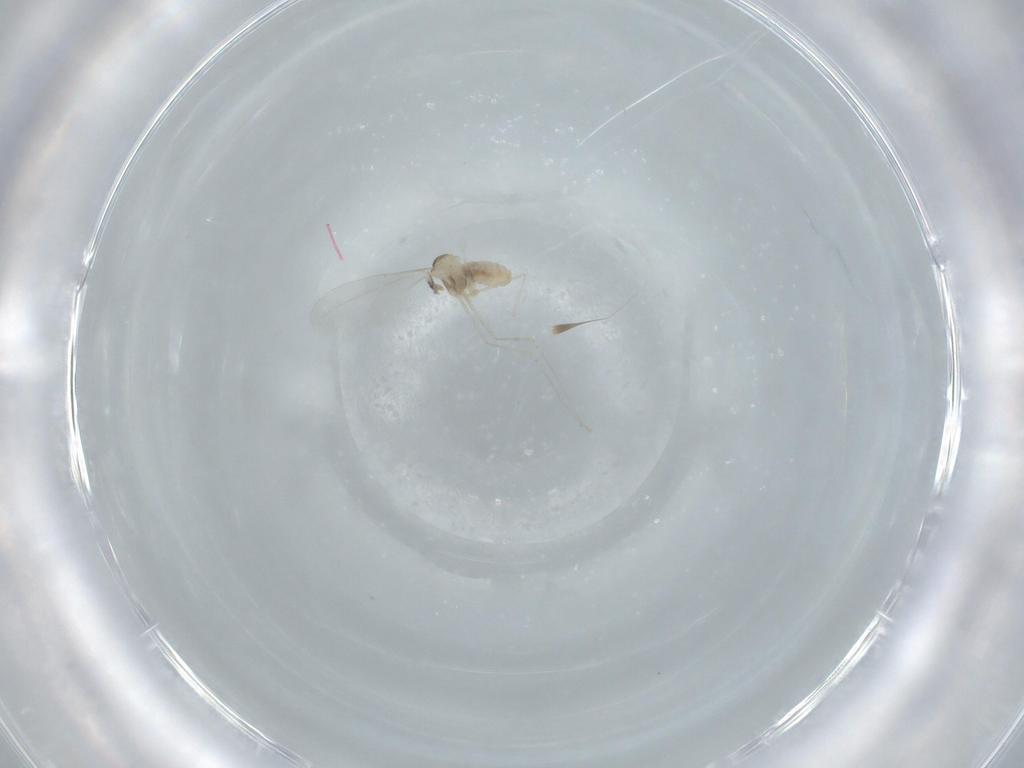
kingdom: Animalia
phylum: Arthropoda
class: Insecta
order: Diptera
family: Cecidomyiidae
